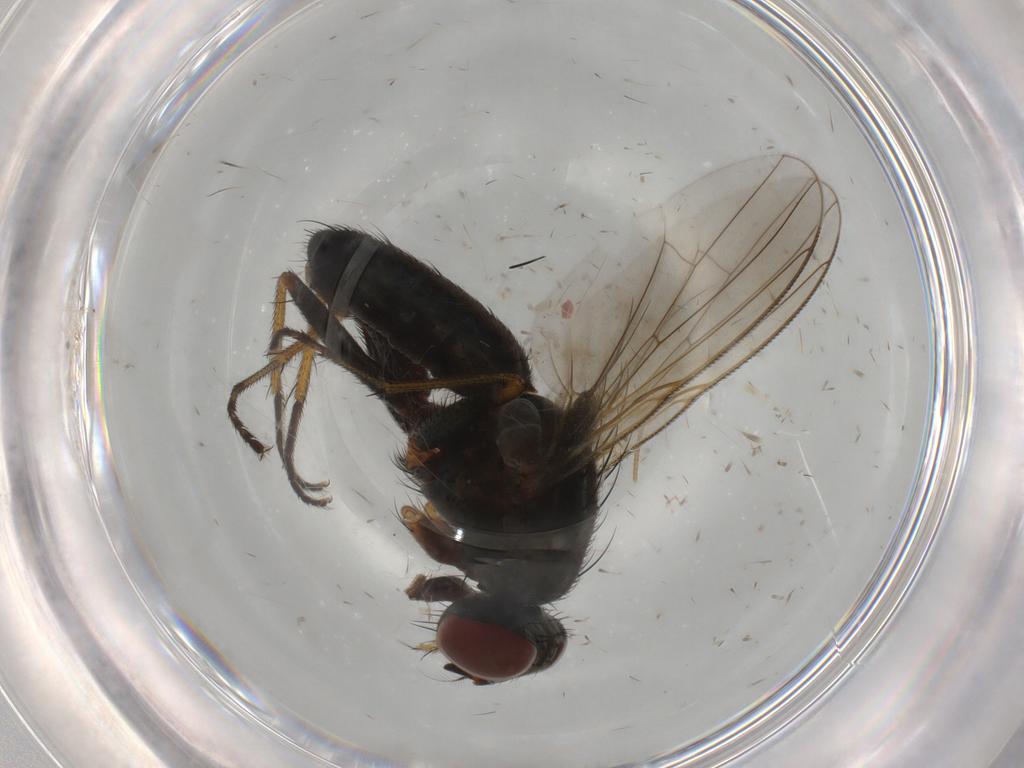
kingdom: Animalia
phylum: Arthropoda
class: Insecta
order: Diptera
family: Muscidae
